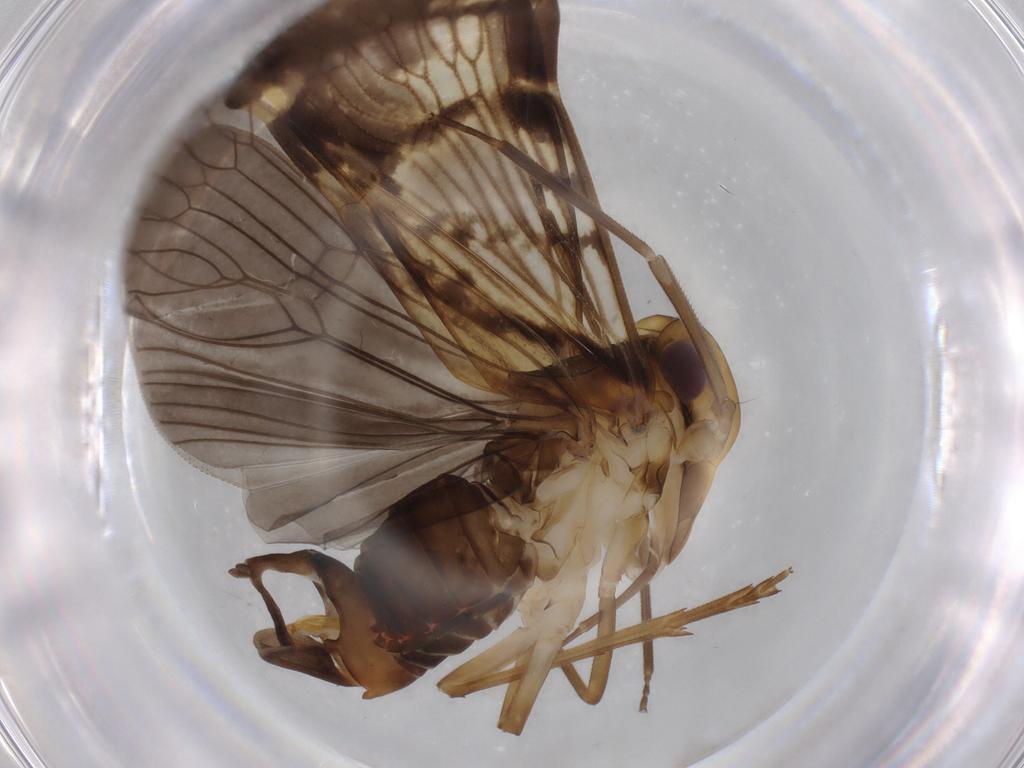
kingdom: Animalia
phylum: Arthropoda
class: Insecta
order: Hemiptera
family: Cixiidae
